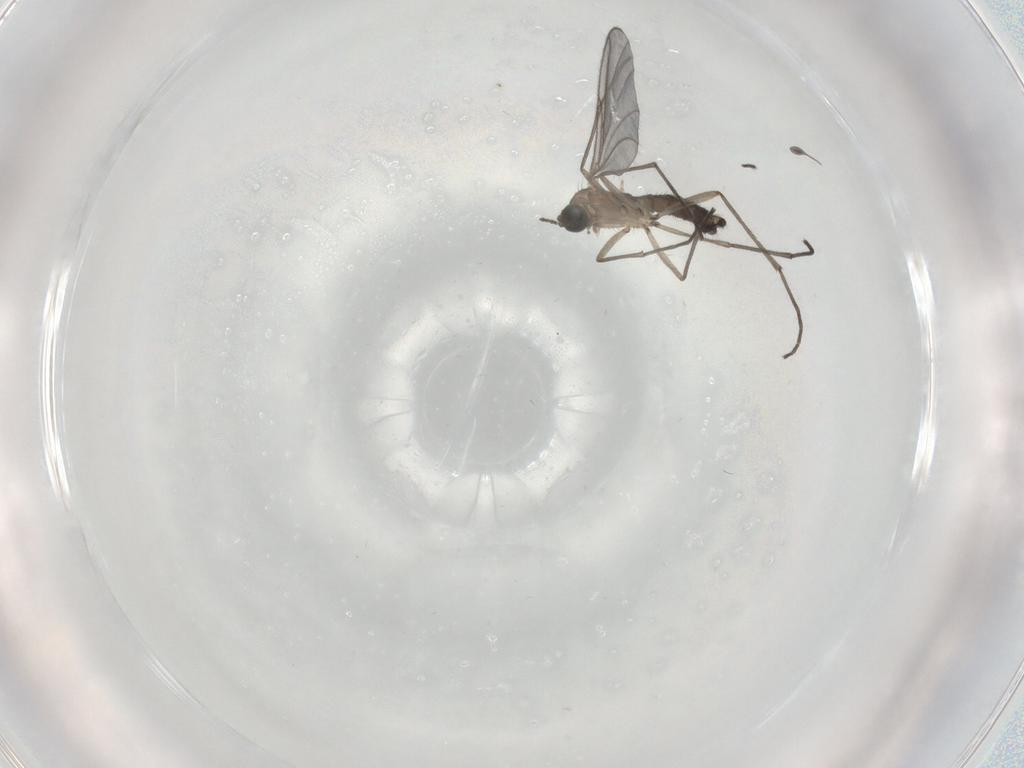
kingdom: Animalia
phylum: Arthropoda
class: Insecta
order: Diptera
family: Sciaridae
